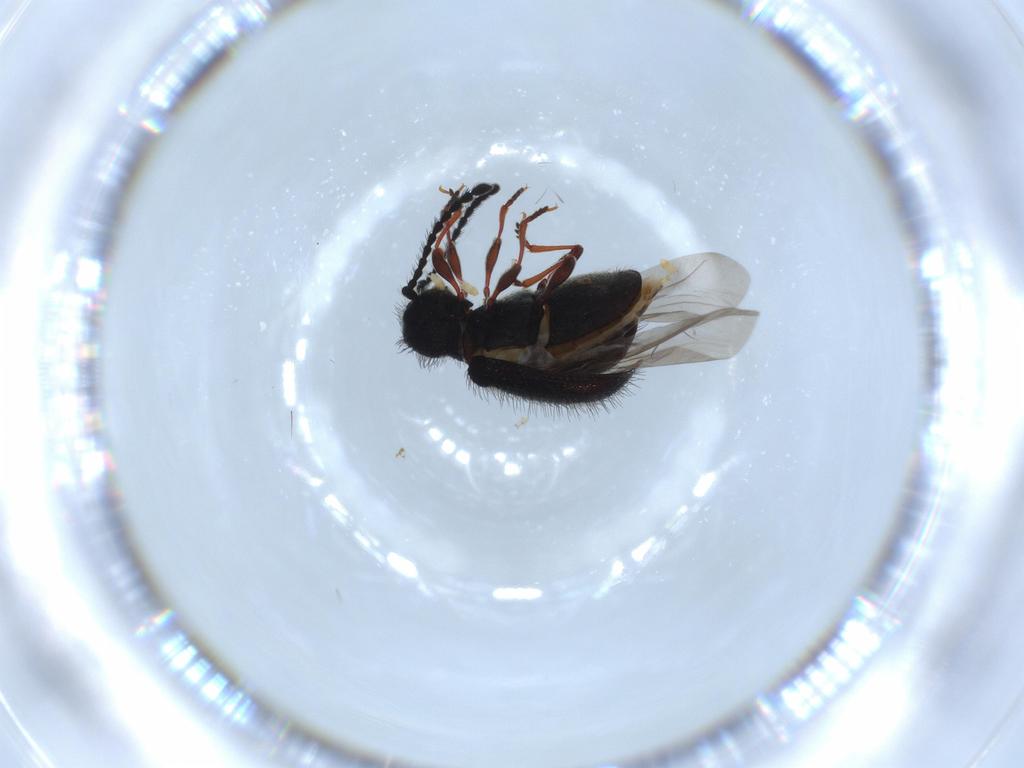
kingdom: Animalia
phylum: Arthropoda
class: Insecta
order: Coleoptera
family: Ptinidae
